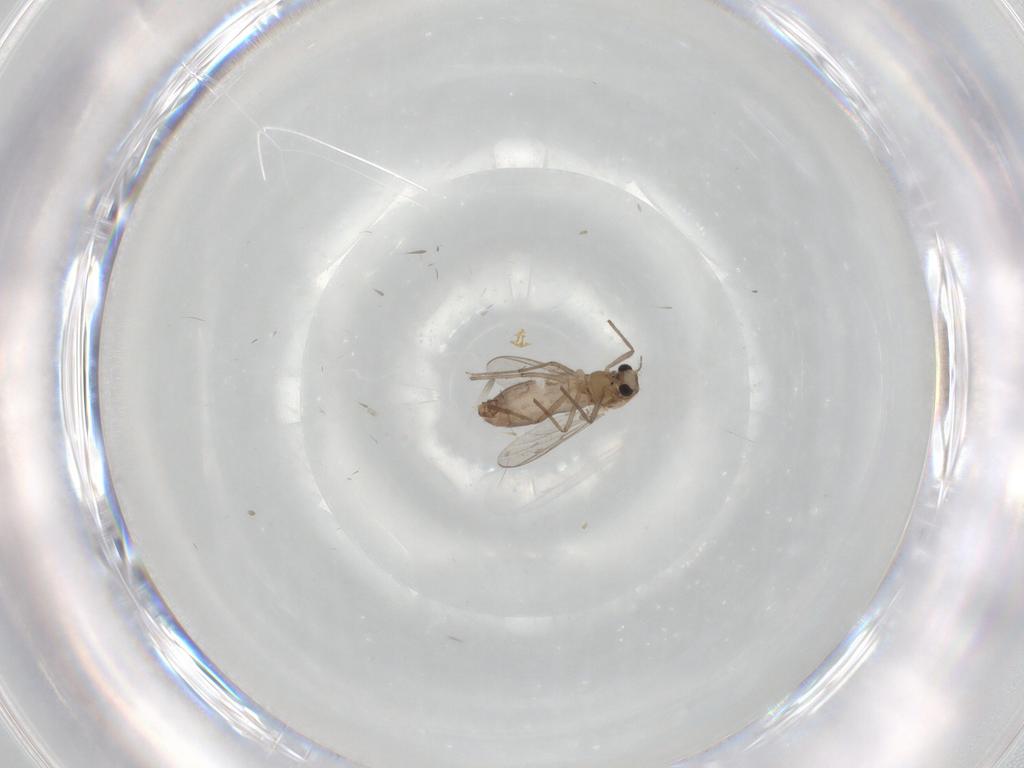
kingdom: Animalia
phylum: Arthropoda
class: Insecta
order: Diptera
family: Chironomidae
